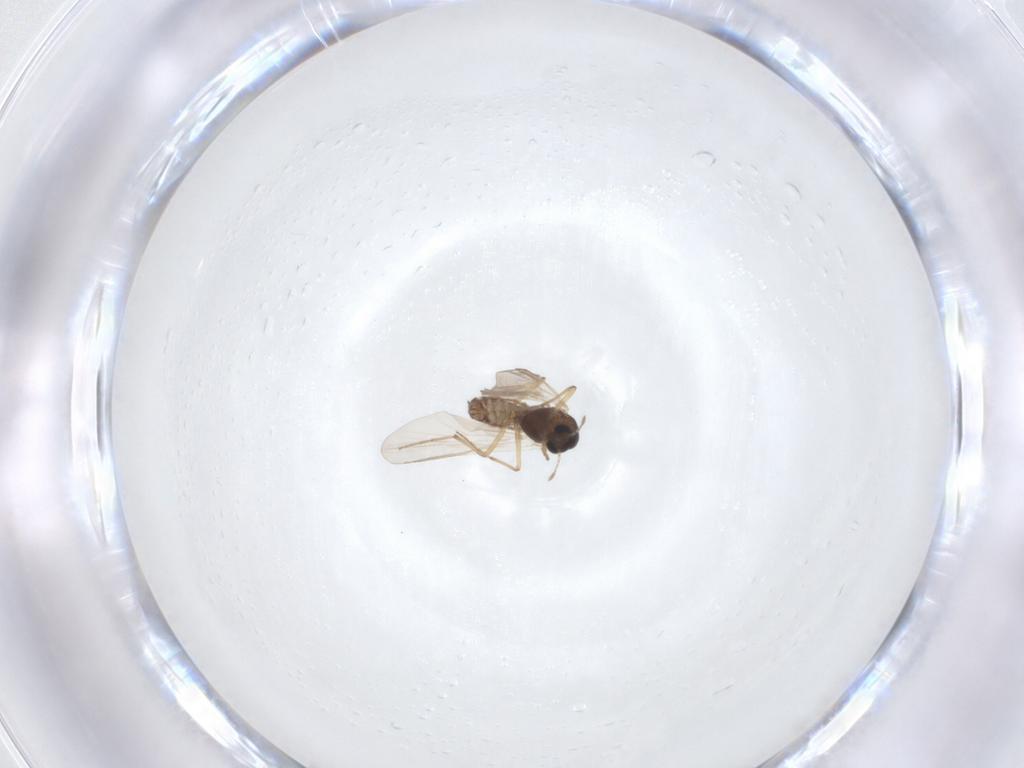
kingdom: Animalia
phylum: Arthropoda
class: Insecta
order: Diptera
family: Chironomidae
